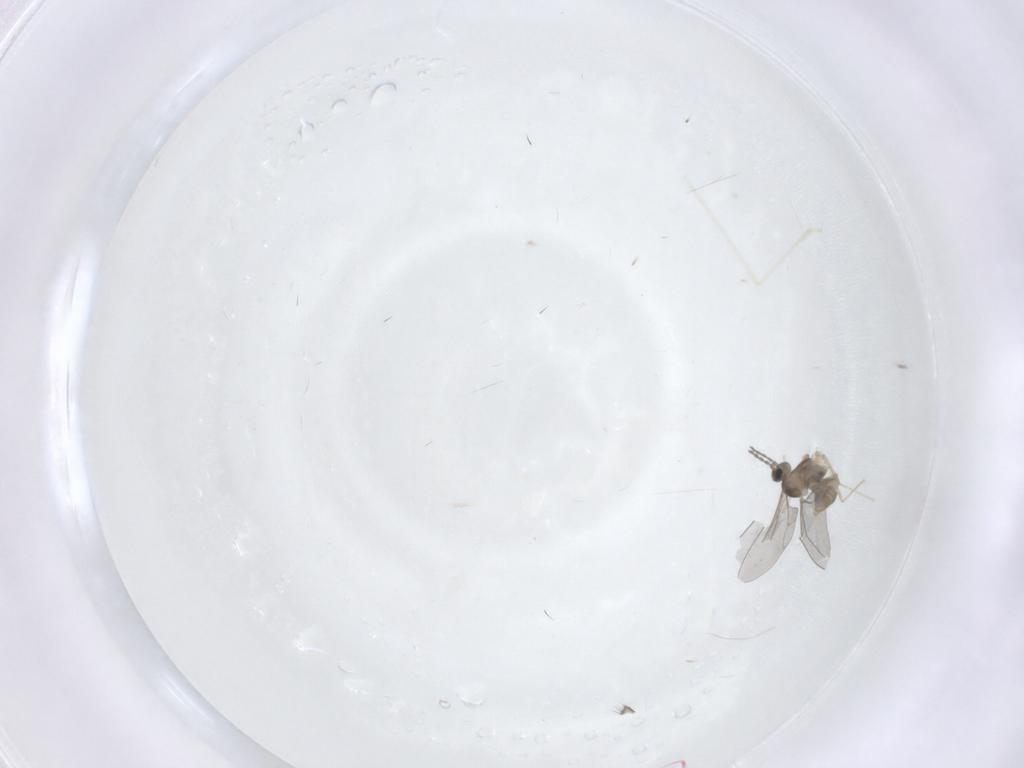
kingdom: Animalia
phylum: Arthropoda
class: Insecta
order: Diptera
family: Cecidomyiidae
